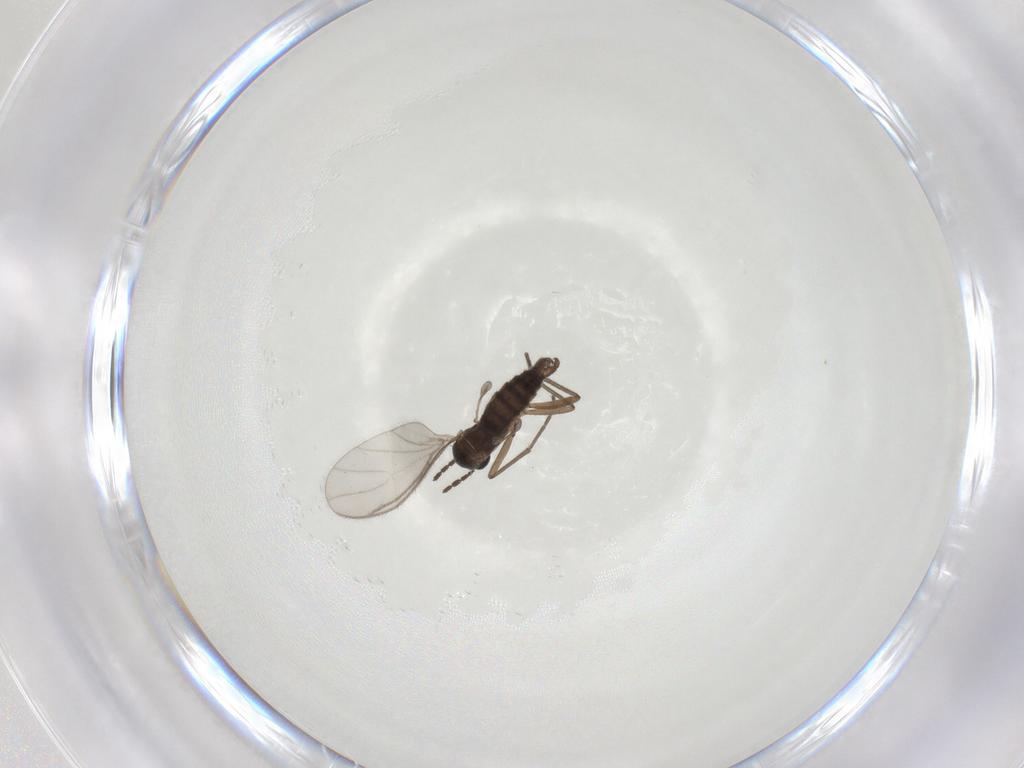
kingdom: Animalia
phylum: Arthropoda
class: Insecta
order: Diptera
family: Sciaridae
